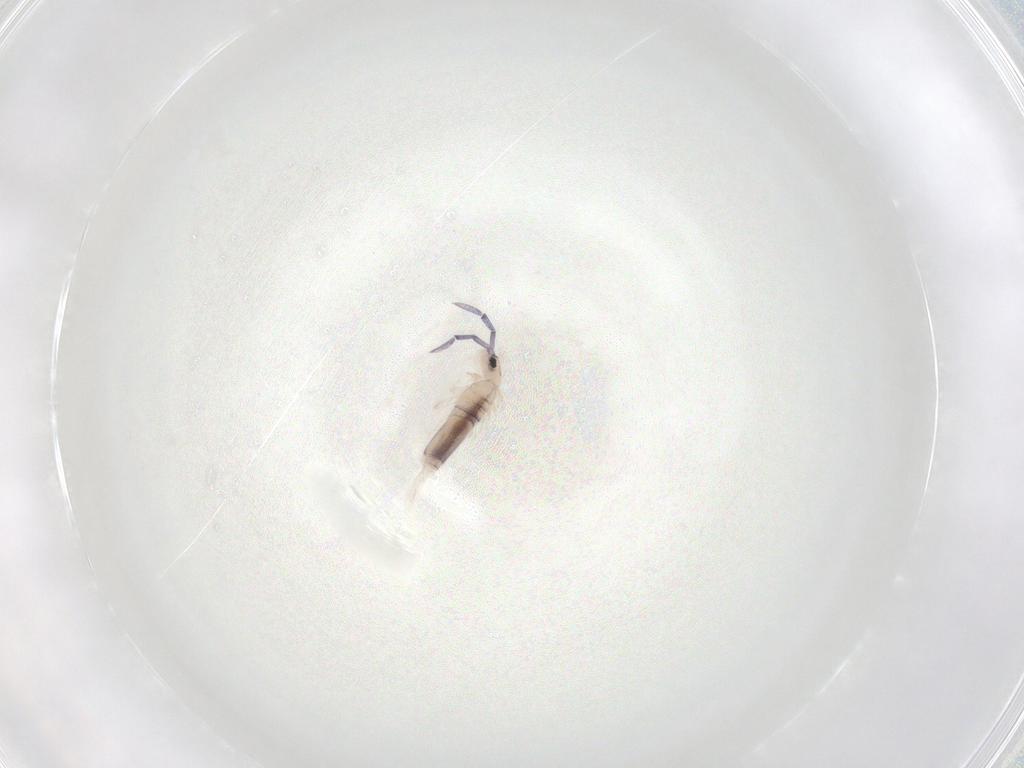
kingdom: Animalia
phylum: Arthropoda
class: Collembola
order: Entomobryomorpha
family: Entomobryidae
